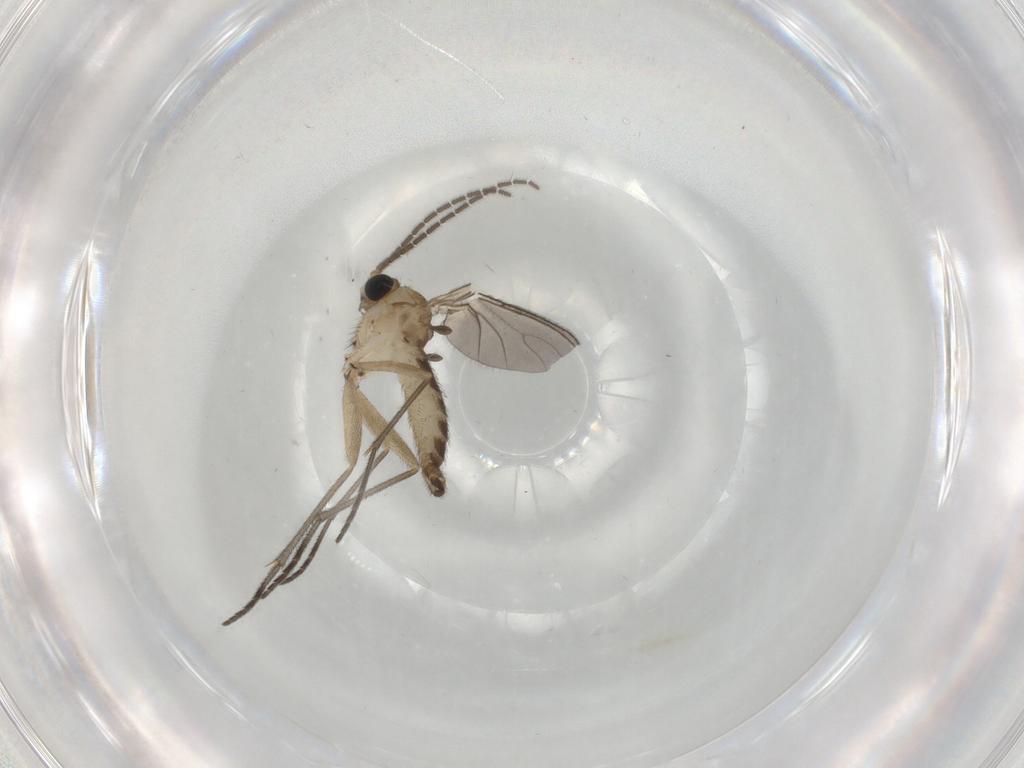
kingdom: Animalia
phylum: Arthropoda
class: Insecta
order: Diptera
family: Sciaridae
